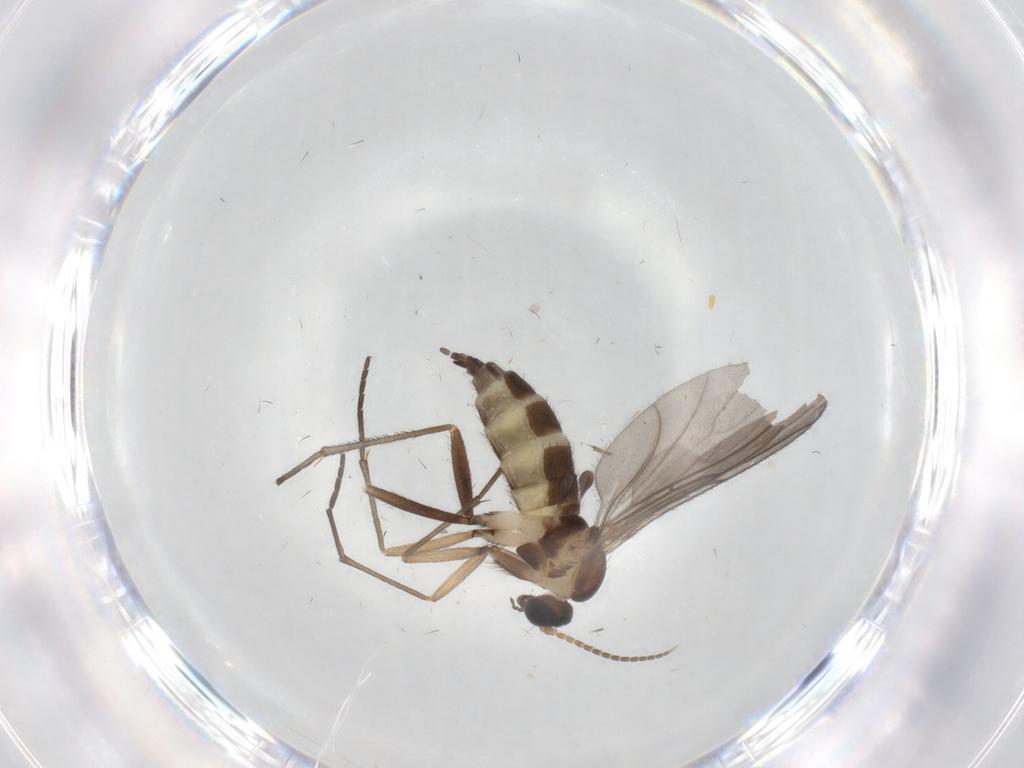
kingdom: Animalia
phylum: Arthropoda
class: Insecta
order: Diptera
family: Sciaridae
